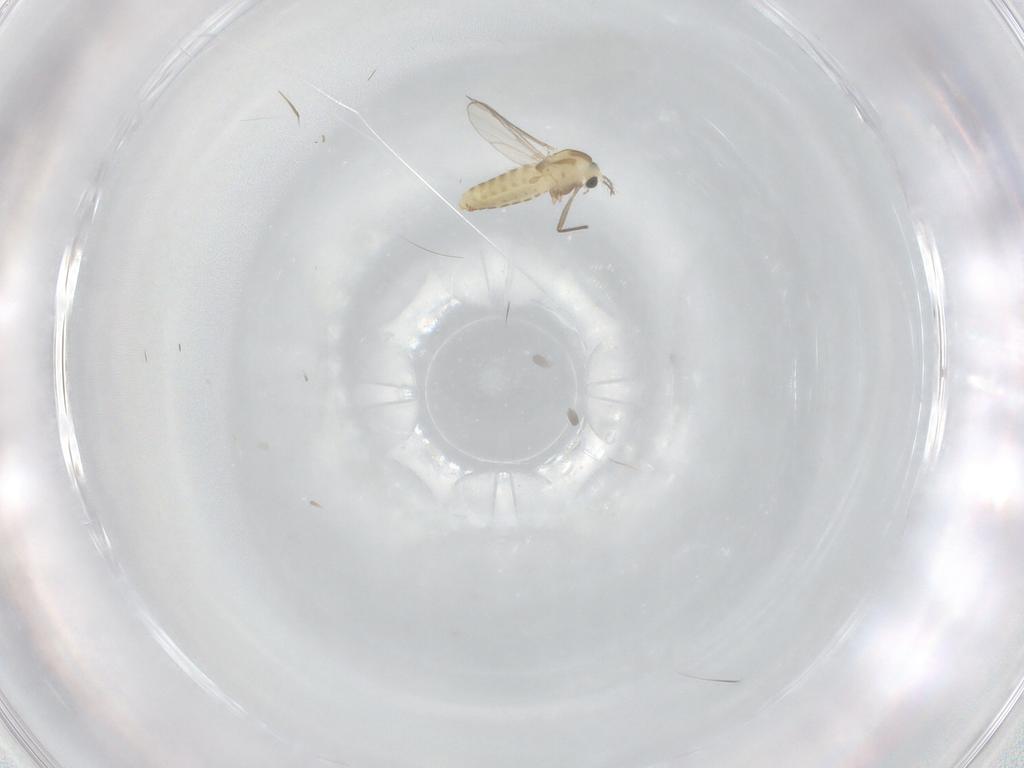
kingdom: Animalia
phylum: Arthropoda
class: Insecta
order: Diptera
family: Chironomidae
